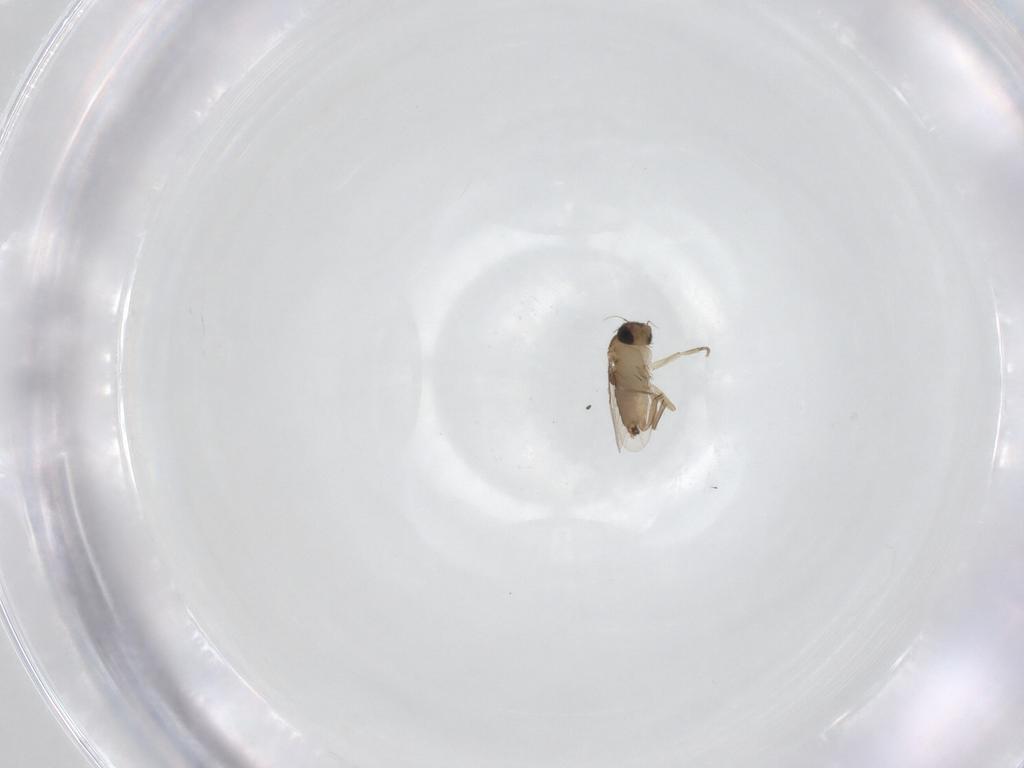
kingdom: Animalia
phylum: Arthropoda
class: Insecta
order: Diptera
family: Phoridae
